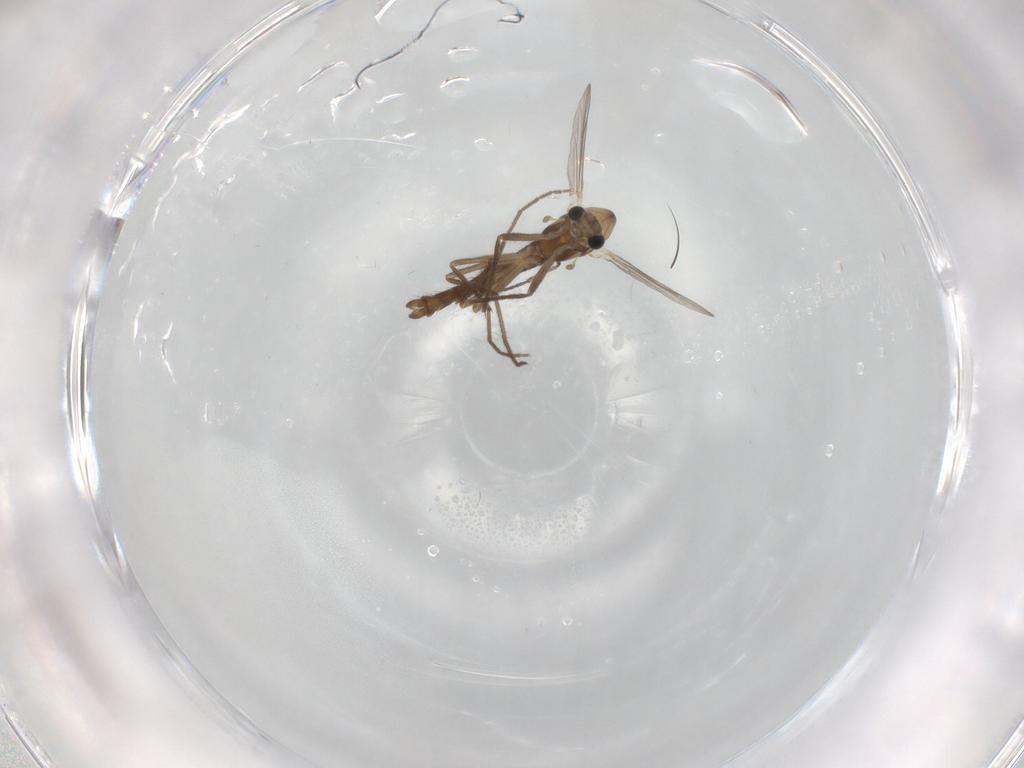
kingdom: Animalia
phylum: Arthropoda
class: Insecta
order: Diptera
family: Chironomidae
